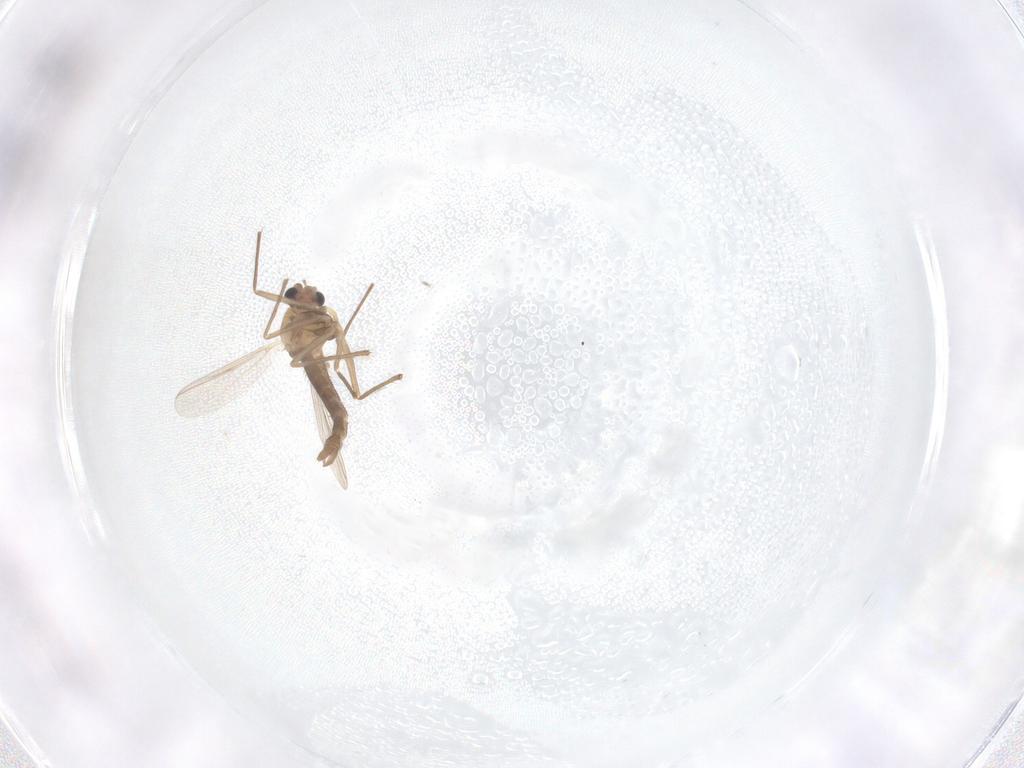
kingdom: Animalia
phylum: Arthropoda
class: Insecta
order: Diptera
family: Chironomidae
